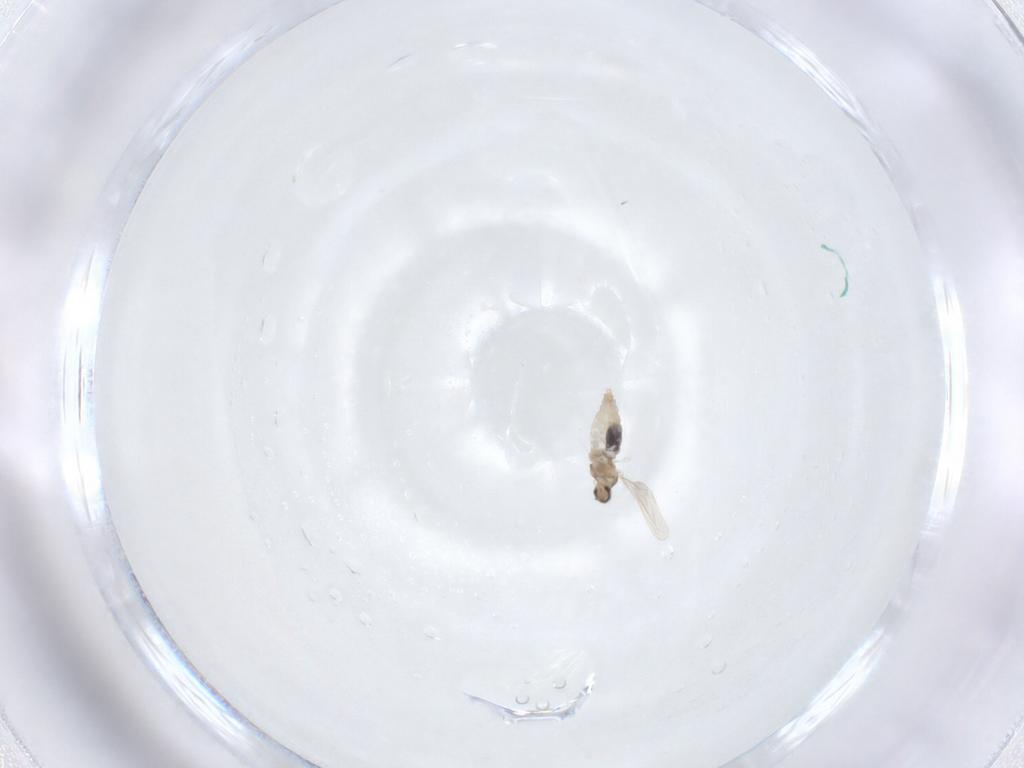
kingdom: Animalia
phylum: Arthropoda
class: Insecta
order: Diptera
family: Cecidomyiidae
